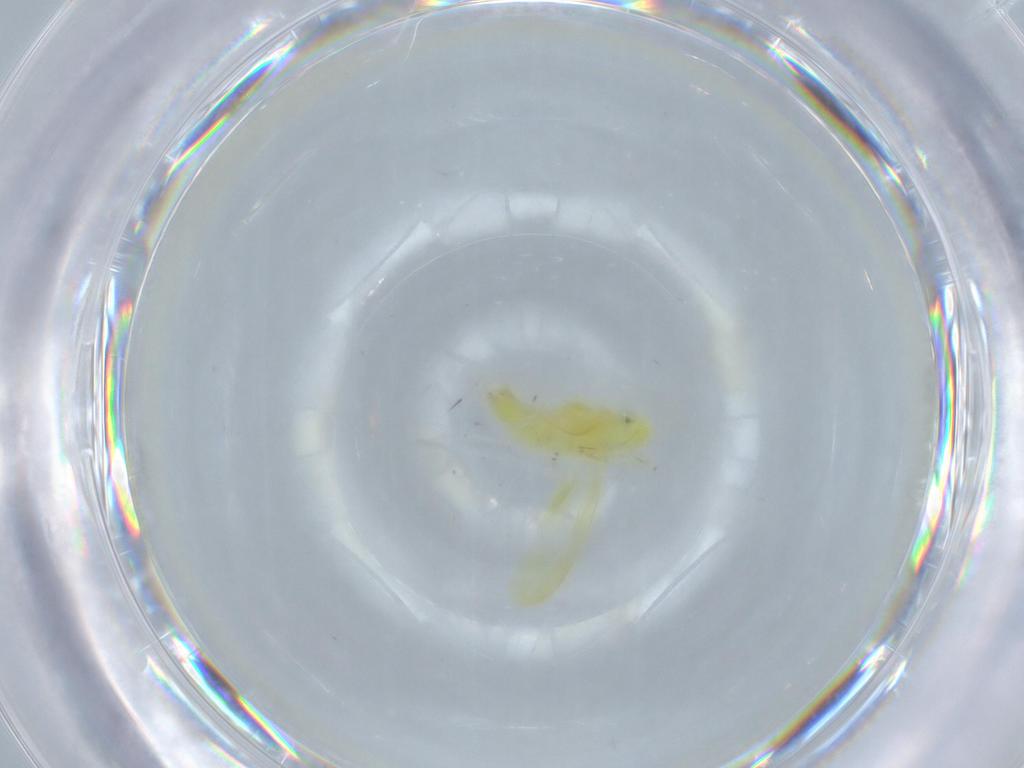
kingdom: Animalia
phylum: Arthropoda
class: Insecta
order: Hemiptera
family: Cicadellidae
